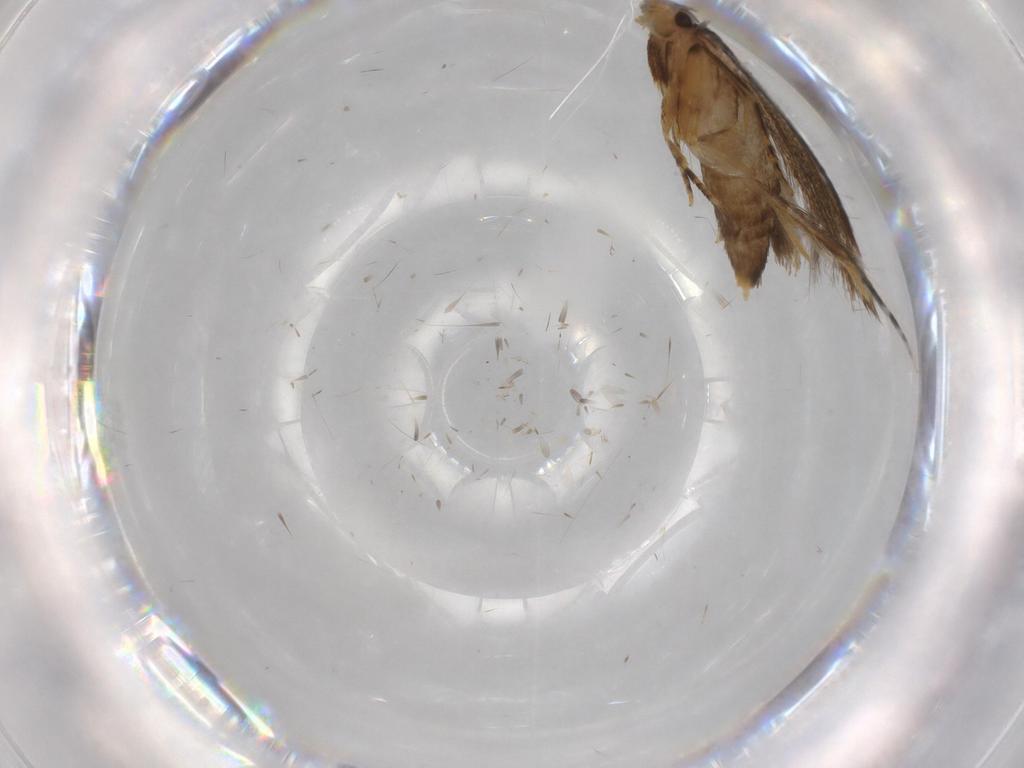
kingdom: Animalia
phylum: Arthropoda
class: Insecta
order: Lepidoptera
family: Tineidae
